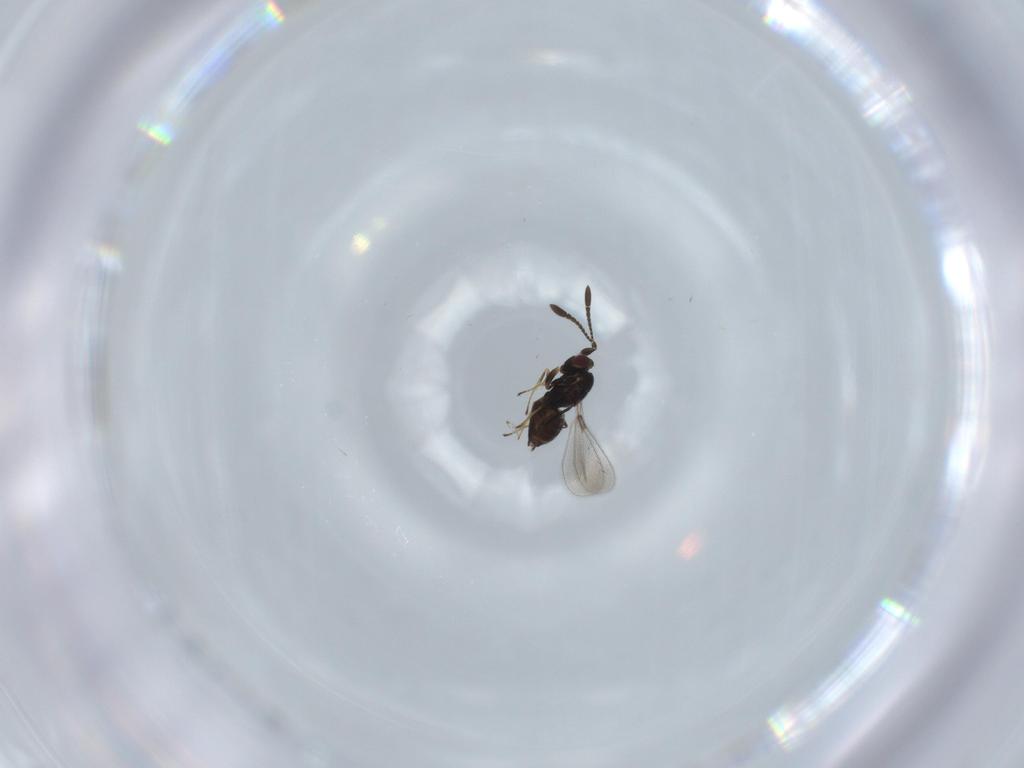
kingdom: Animalia
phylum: Arthropoda
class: Insecta
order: Hymenoptera
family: Mymaridae
